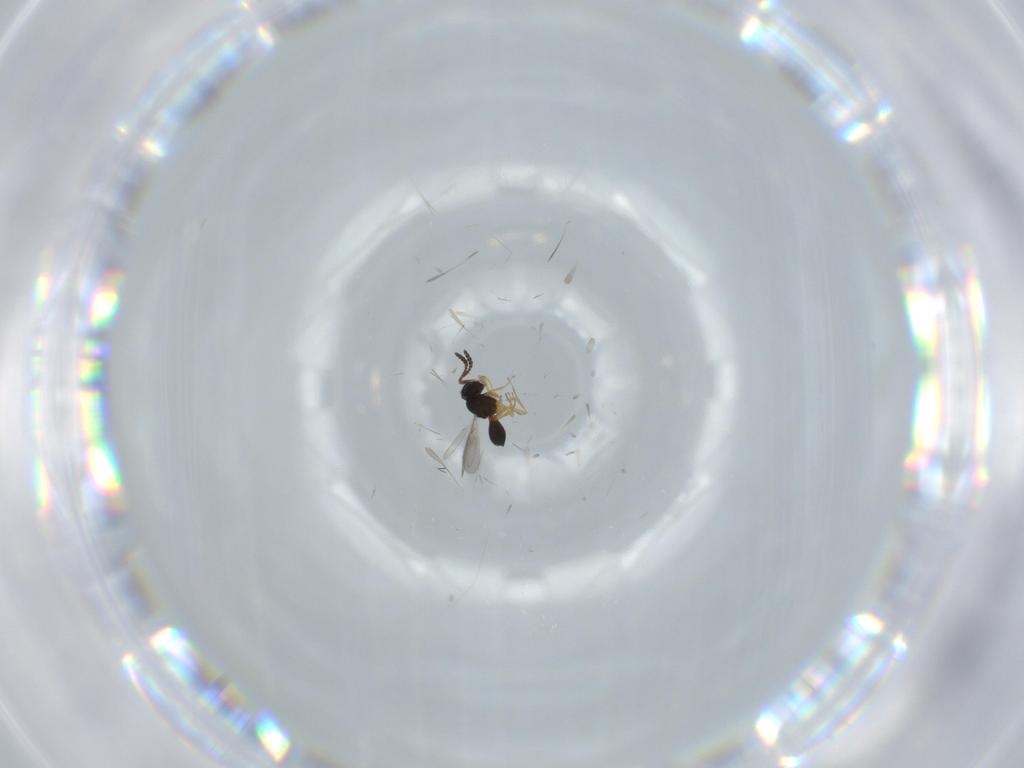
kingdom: Animalia
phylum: Arthropoda
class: Insecta
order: Hymenoptera
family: Trichogrammatidae
